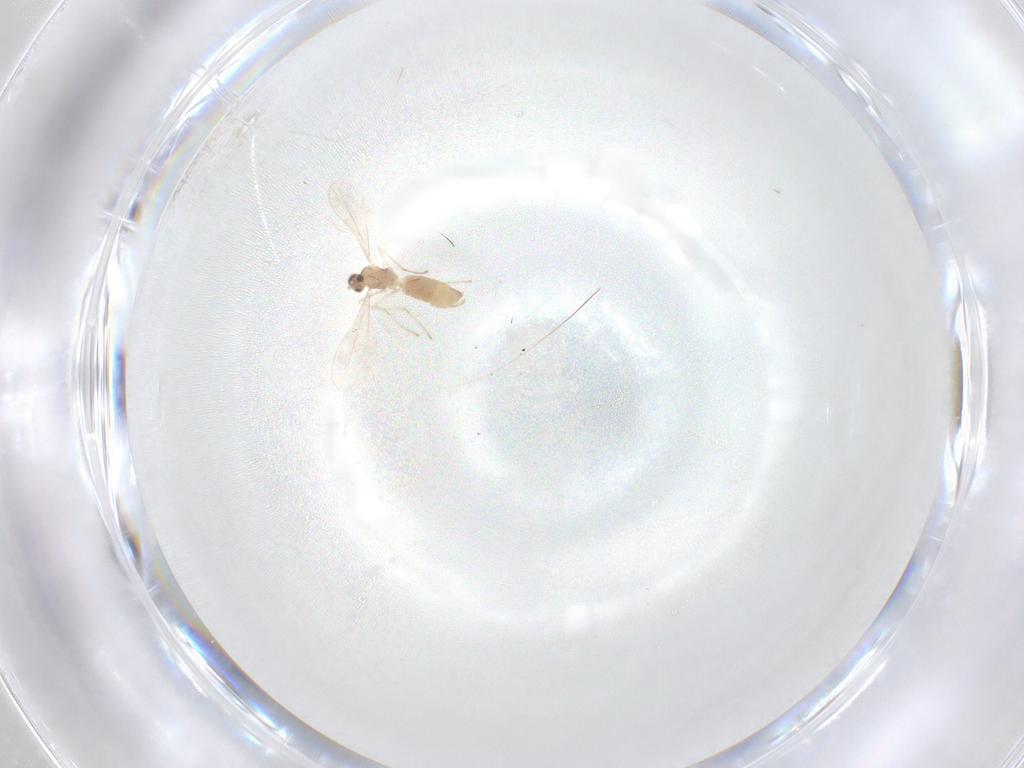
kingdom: Animalia
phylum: Arthropoda
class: Insecta
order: Diptera
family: Cecidomyiidae
